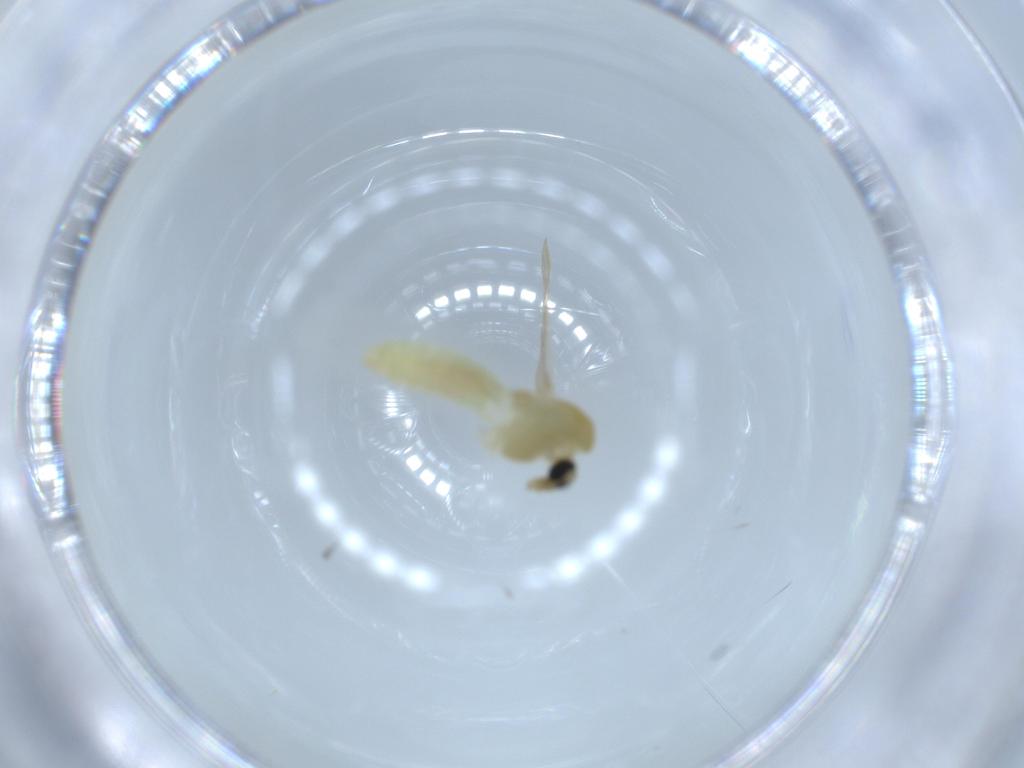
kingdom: Animalia
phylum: Arthropoda
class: Insecta
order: Diptera
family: Chironomidae
